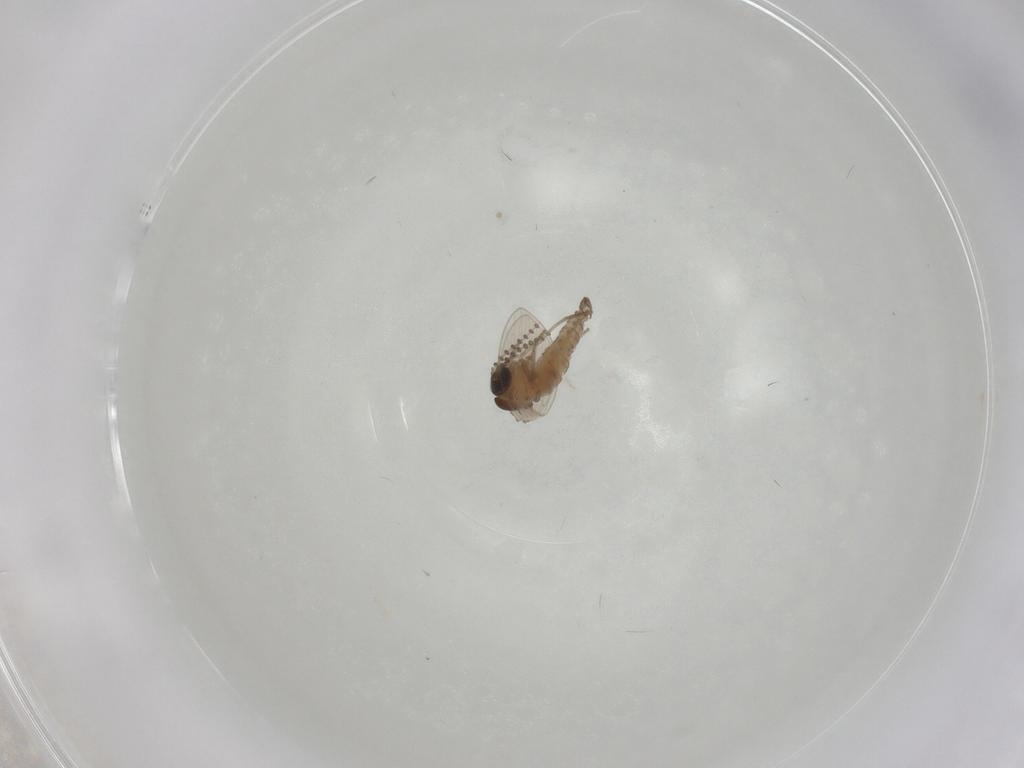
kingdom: Animalia
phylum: Arthropoda
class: Insecta
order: Diptera
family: Psychodidae
